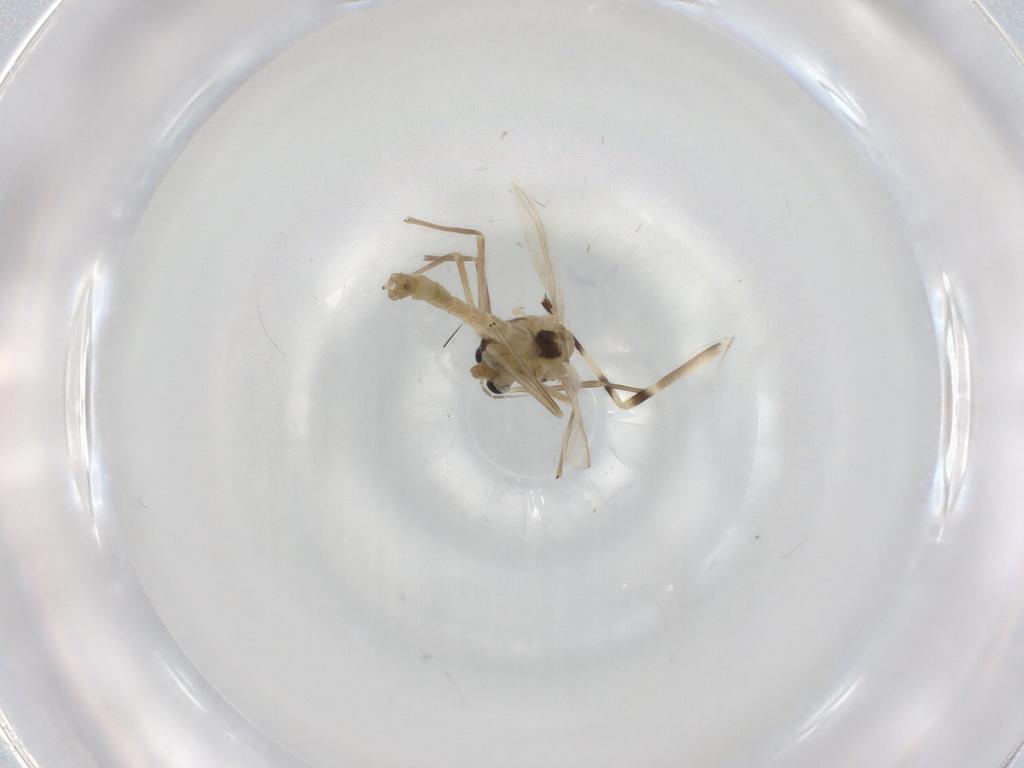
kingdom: Animalia
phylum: Arthropoda
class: Insecta
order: Diptera
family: Chironomidae
